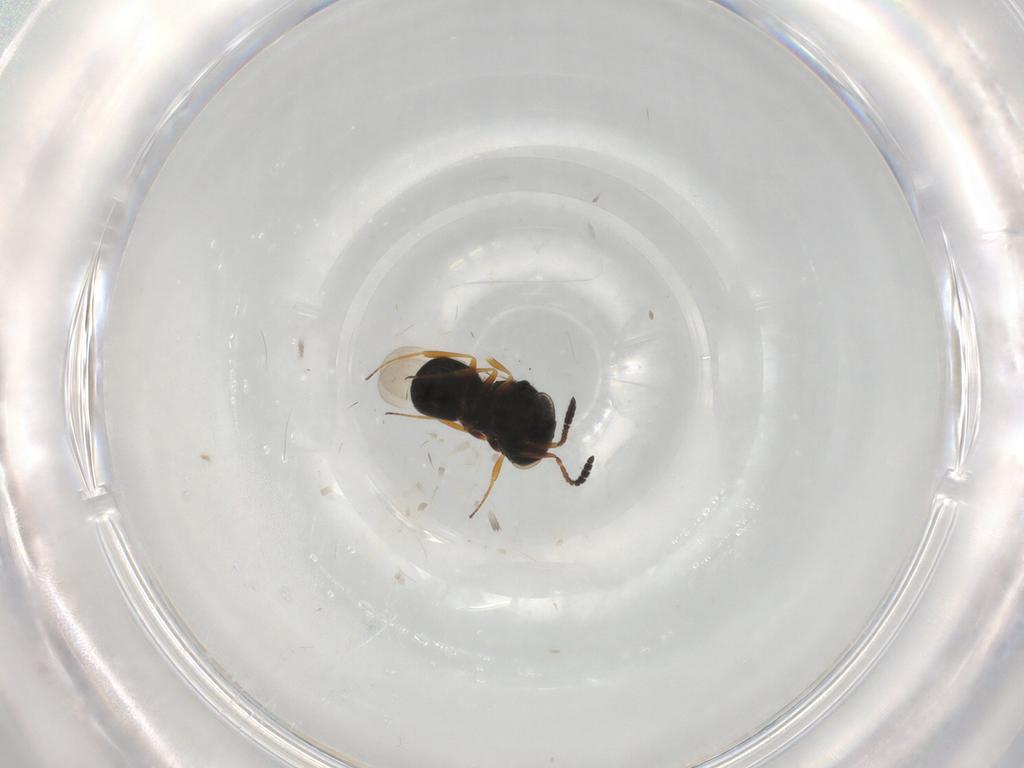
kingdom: Animalia
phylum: Arthropoda
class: Insecta
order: Hymenoptera
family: Scelionidae
